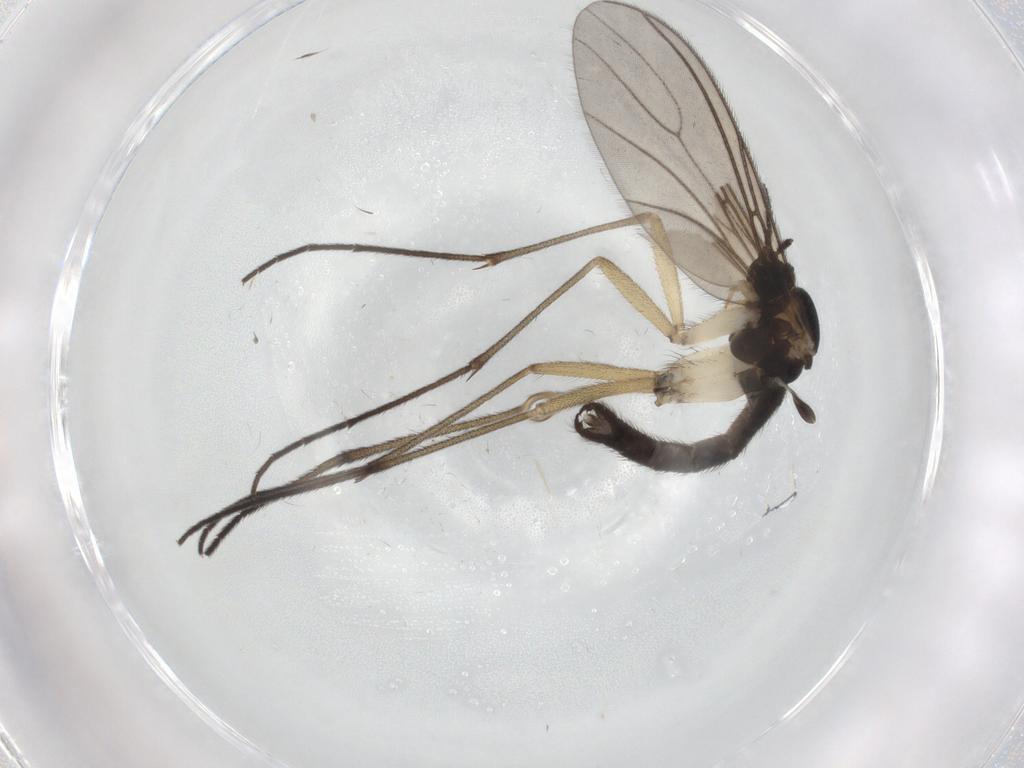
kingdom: Animalia
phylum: Arthropoda
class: Insecta
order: Diptera
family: Sciaridae
